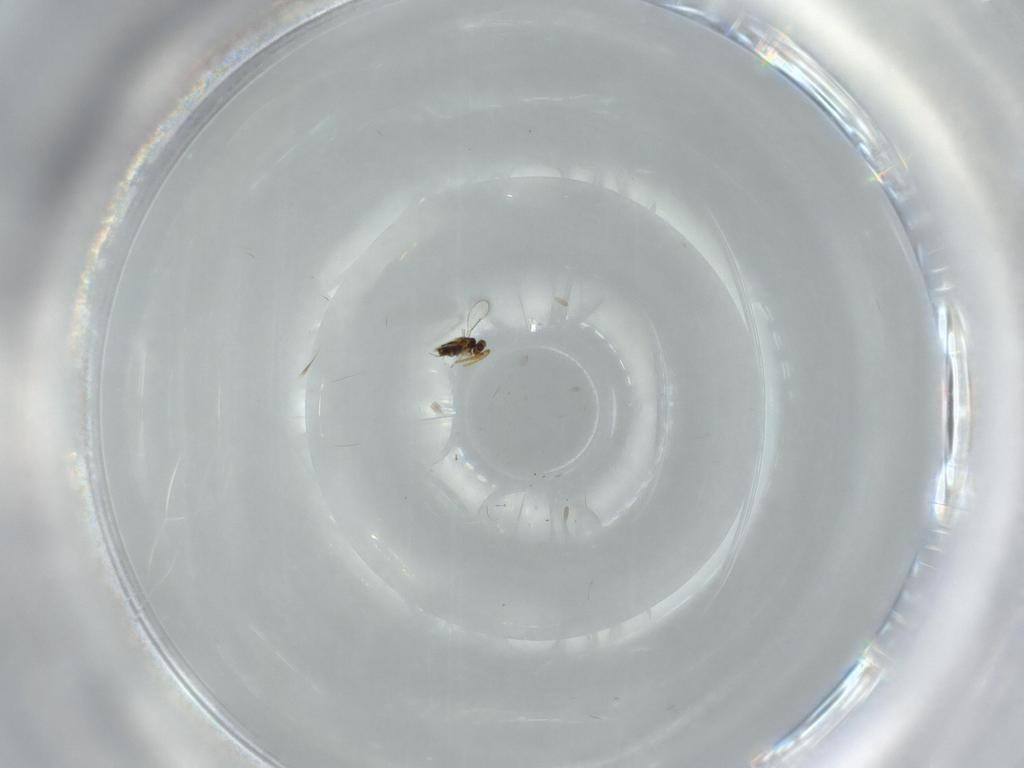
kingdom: Animalia
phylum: Arthropoda
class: Insecta
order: Hymenoptera
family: Aphelinidae
